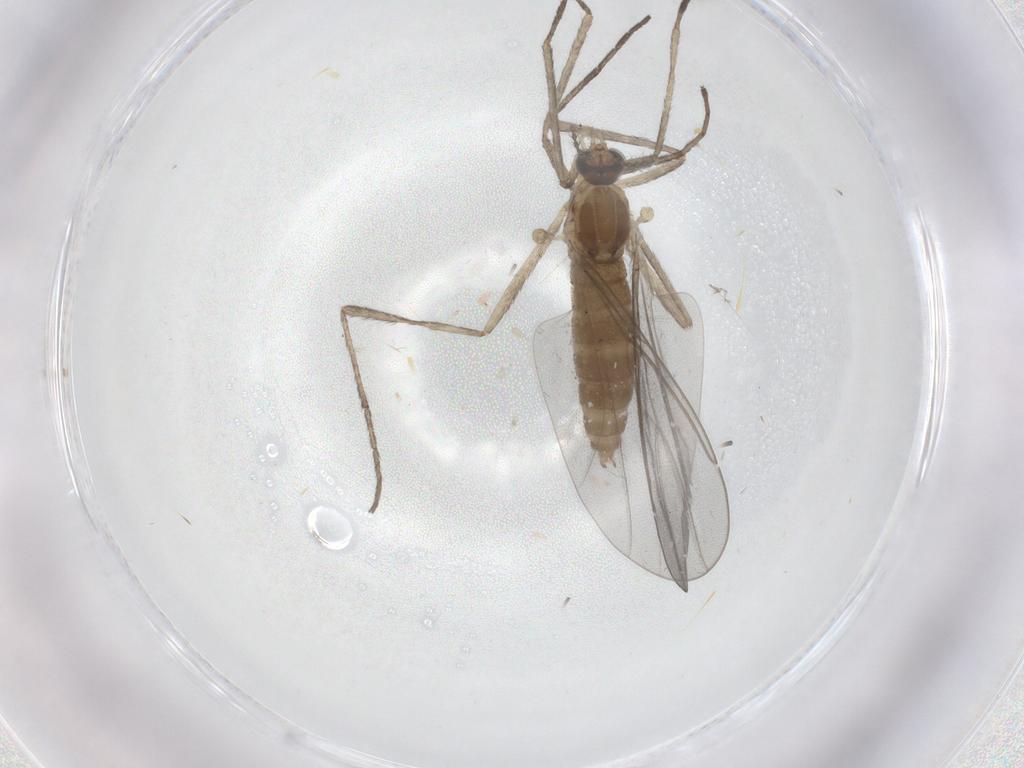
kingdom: Animalia
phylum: Arthropoda
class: Insecta
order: Diptera
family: Cecidomyiidae
